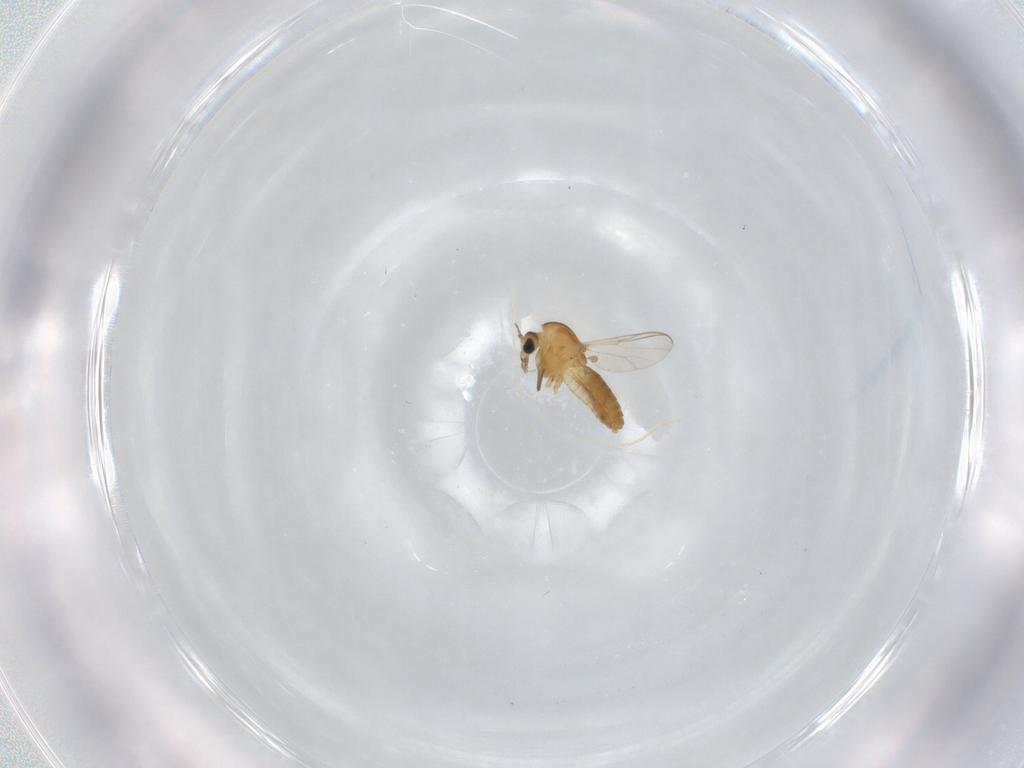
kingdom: Animalia
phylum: Arthropoda
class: Insecta
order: Diptera
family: Chironomidae
